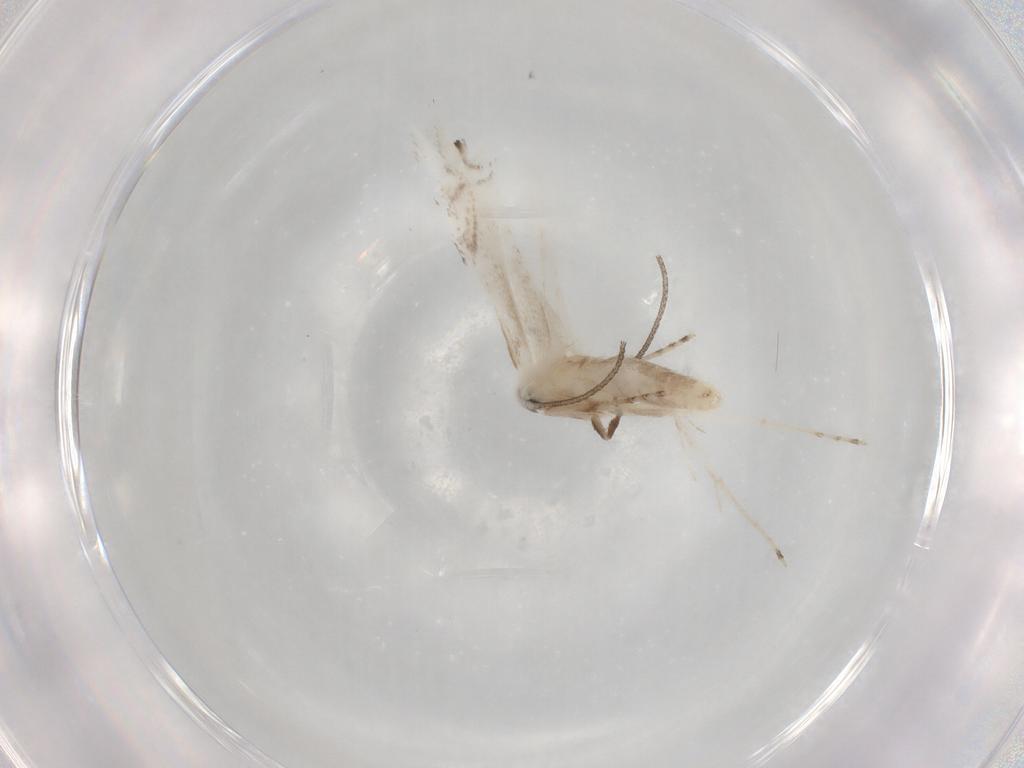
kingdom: Animalia
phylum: Arthropoda
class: Insecta
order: Lepidoptera
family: Lyonetiidae
